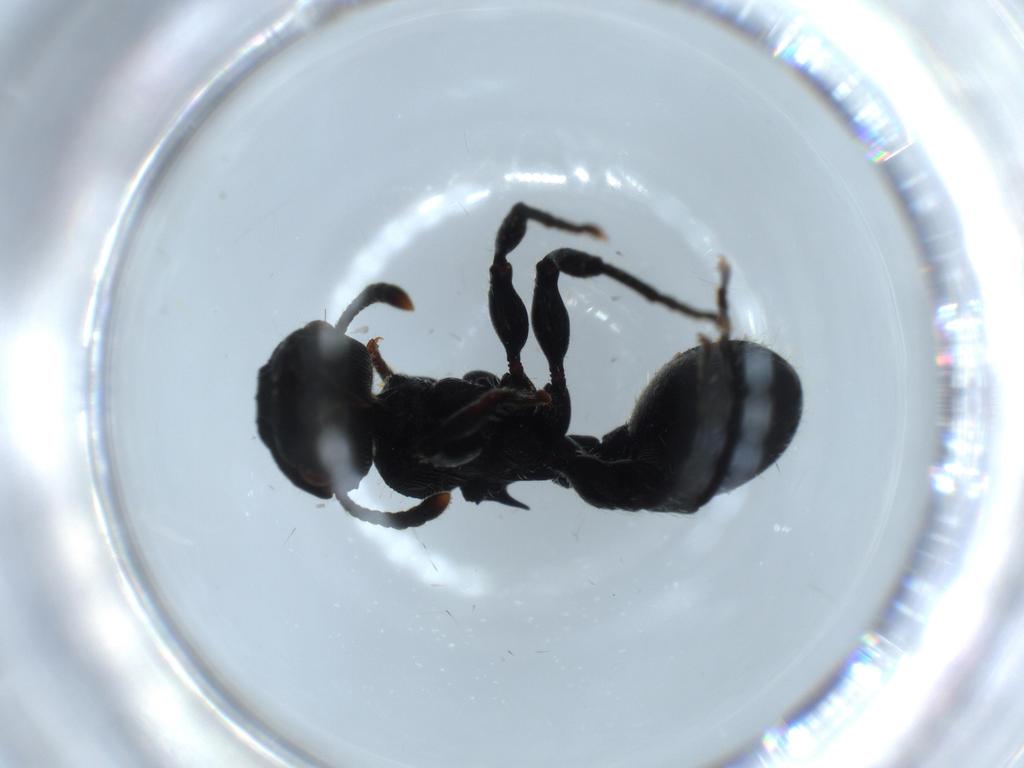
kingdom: Animalia
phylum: Arthropoda
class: Insecta
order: Hymenoptera
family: Formicidae
